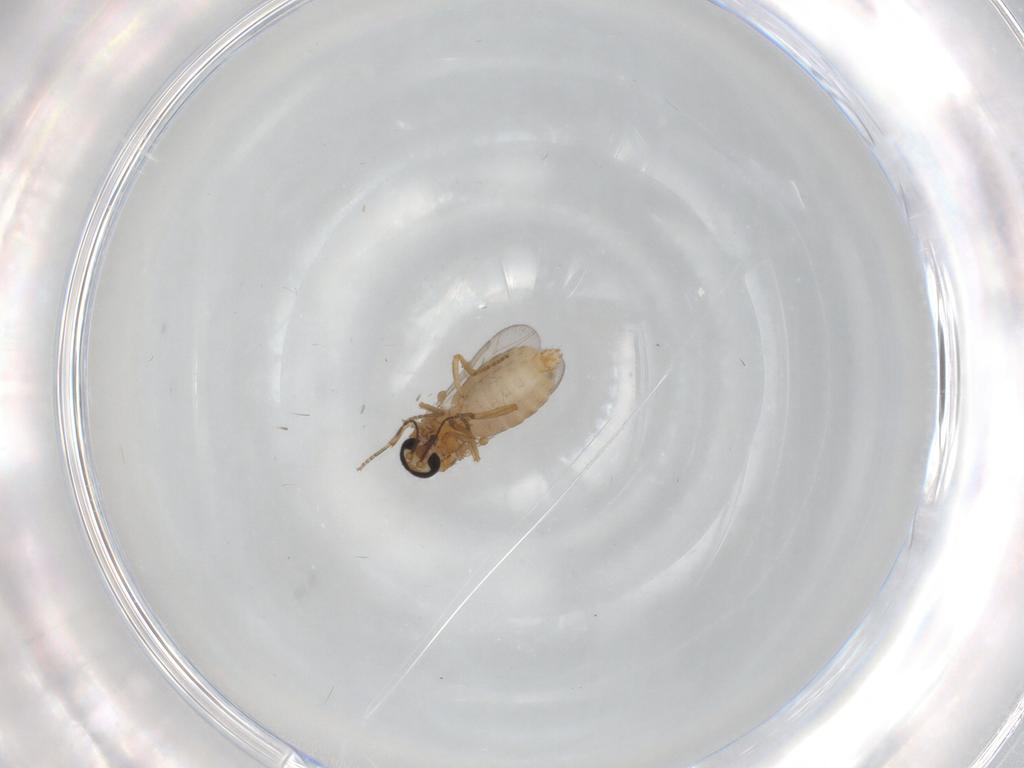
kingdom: Animalia
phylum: Arthropoda
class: Insecta
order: Diptera
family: Ceratopogonidae
